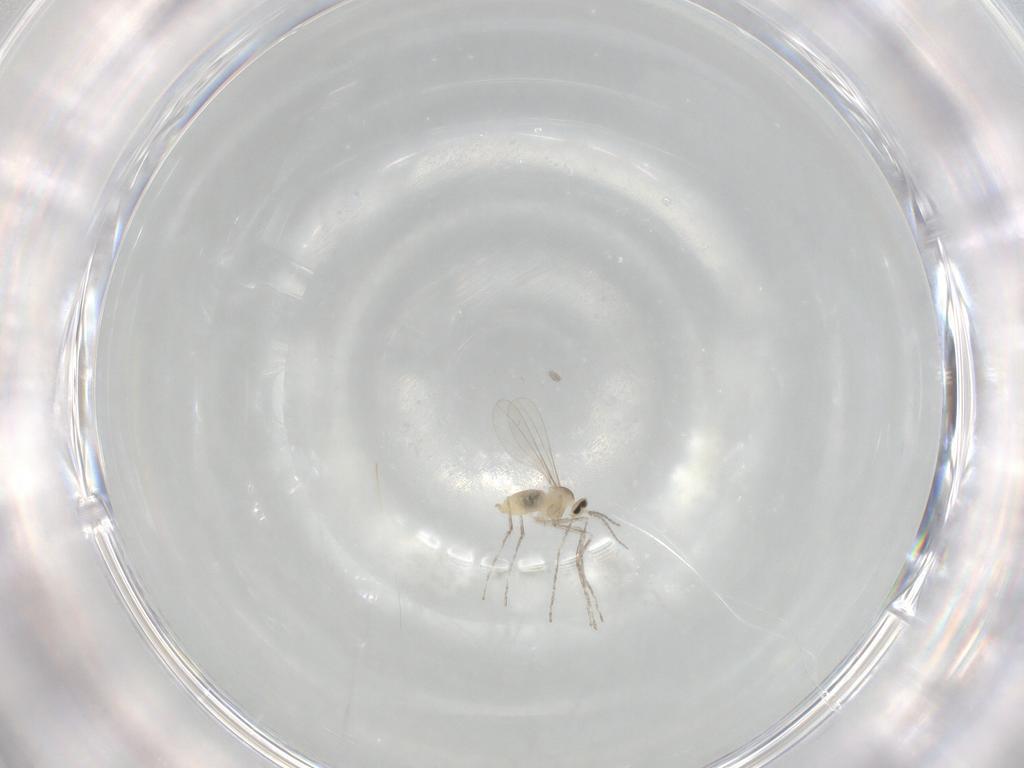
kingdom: Animalia
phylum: Arthropoda
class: Insecta
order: Diptera
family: Cecidomyiidae
